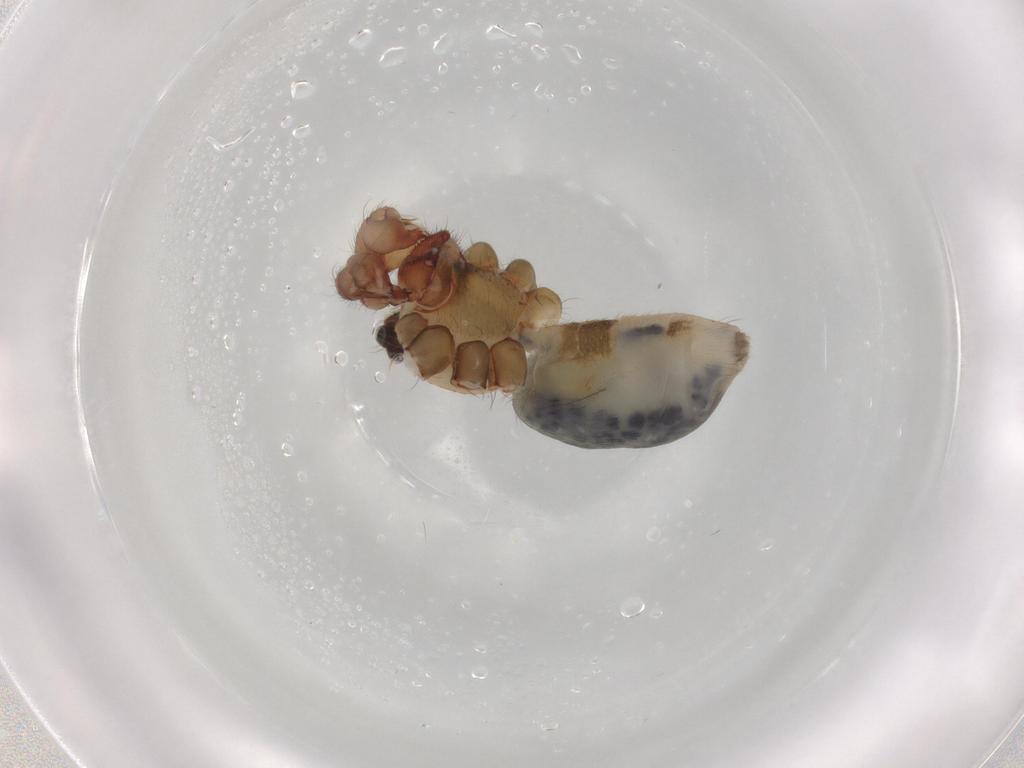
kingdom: Animalia
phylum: Arthropoda
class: Arachnida
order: Araneae
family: Pholcidae
